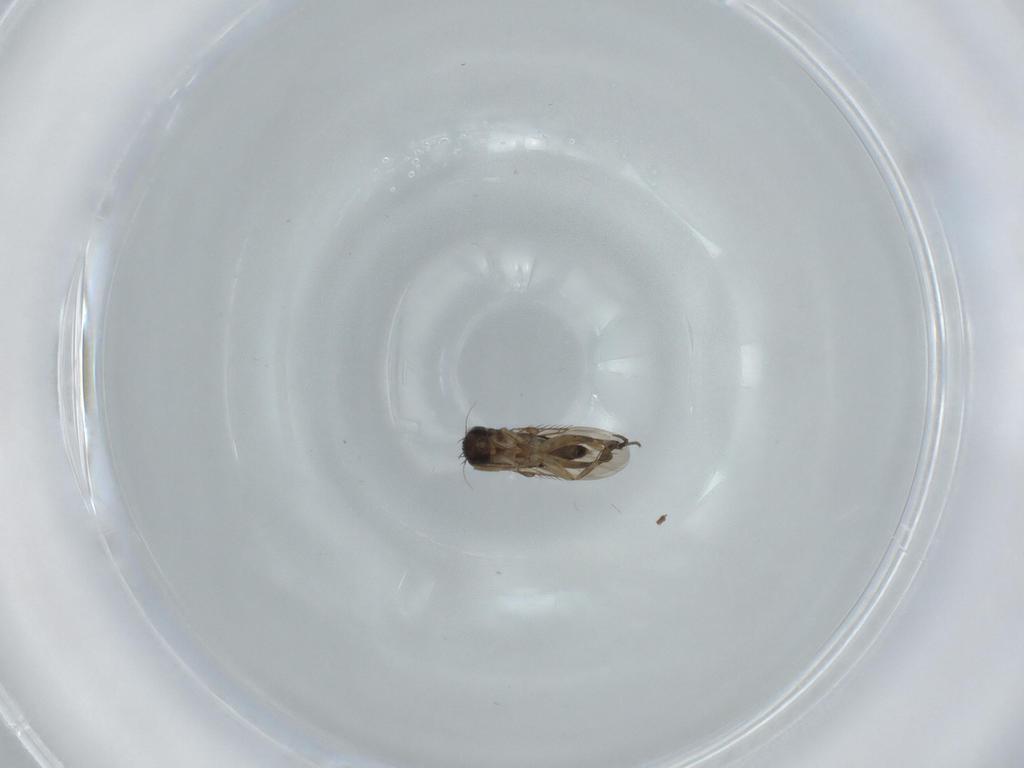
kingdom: Animalia
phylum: Arthropoda
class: Insecta
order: Diptera
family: Phoridae
